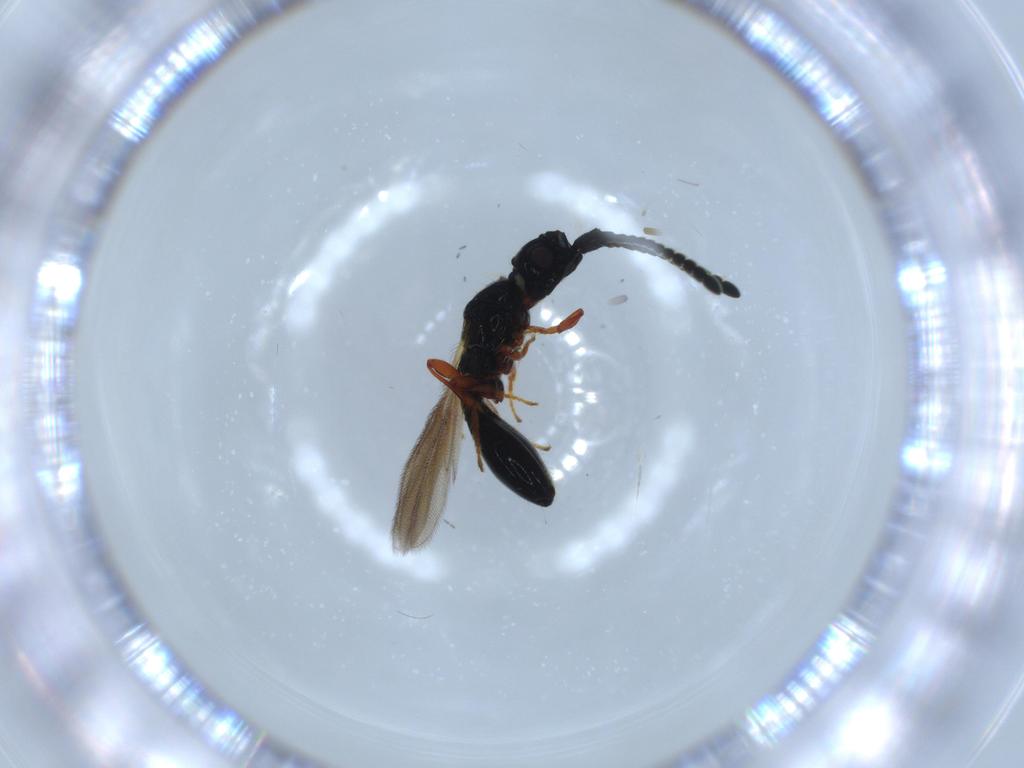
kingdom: Animalia
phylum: Arthropoda
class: Insecta
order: Hymenoptera
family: Diapriidae
